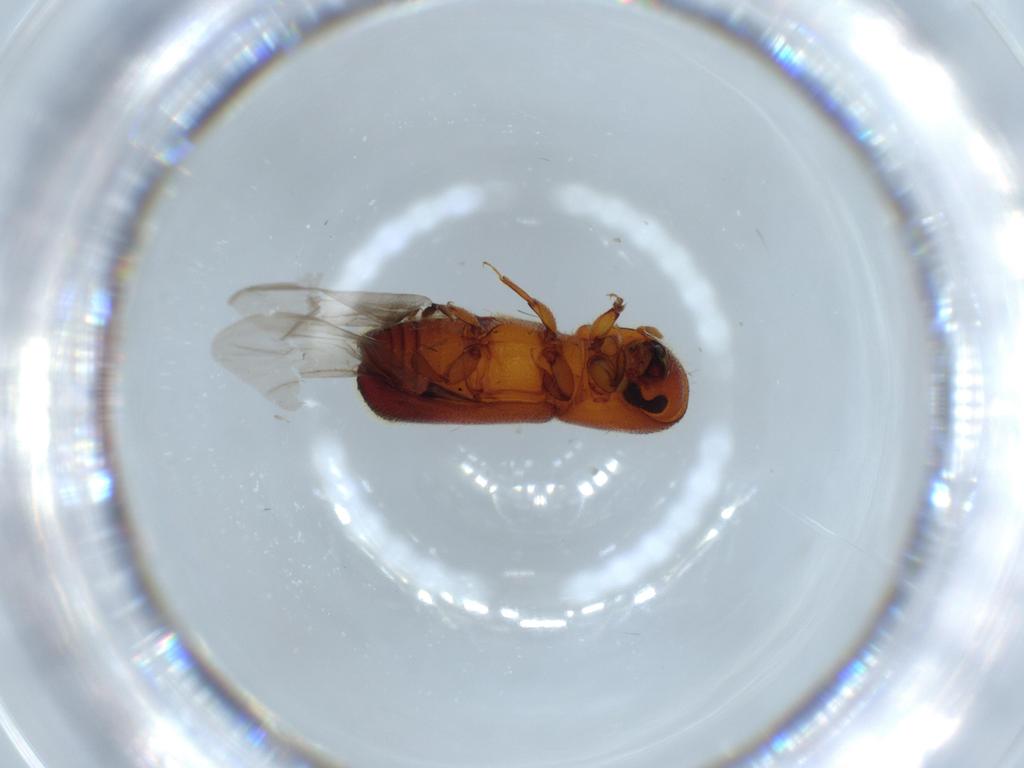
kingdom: Animalia
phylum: Arthropoda
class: Insecta
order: Coleoptera
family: Curculionidae
